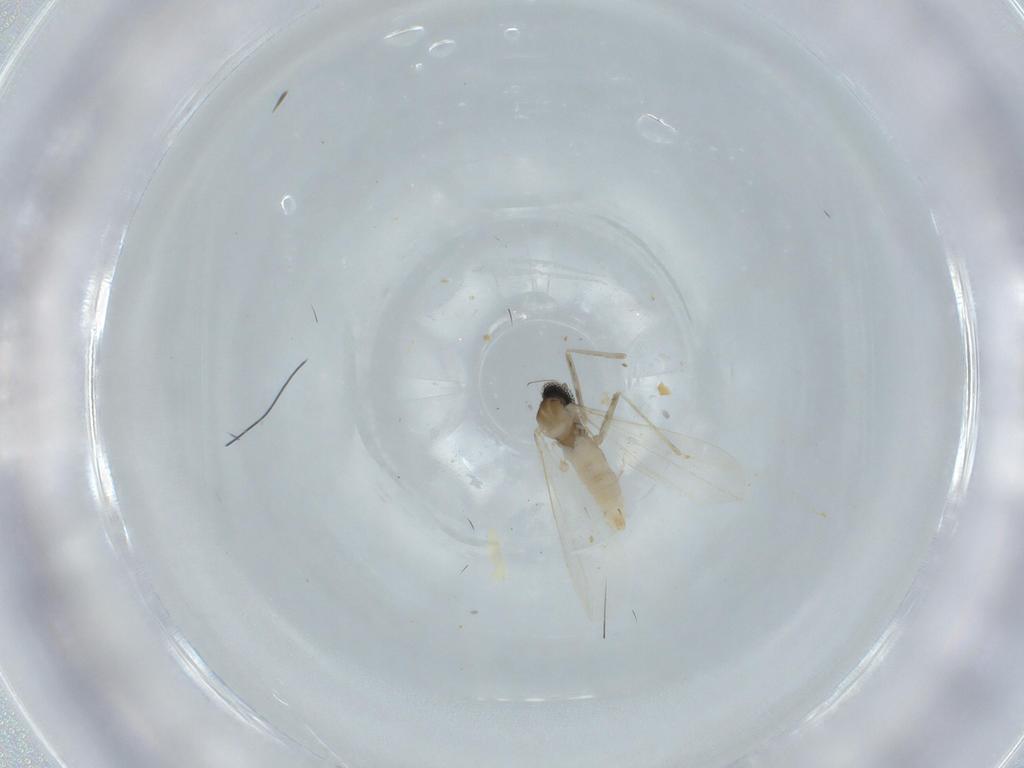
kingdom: Animalia
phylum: Arthropoda
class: Insecta
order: Diptera
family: Cecidomyiidae
